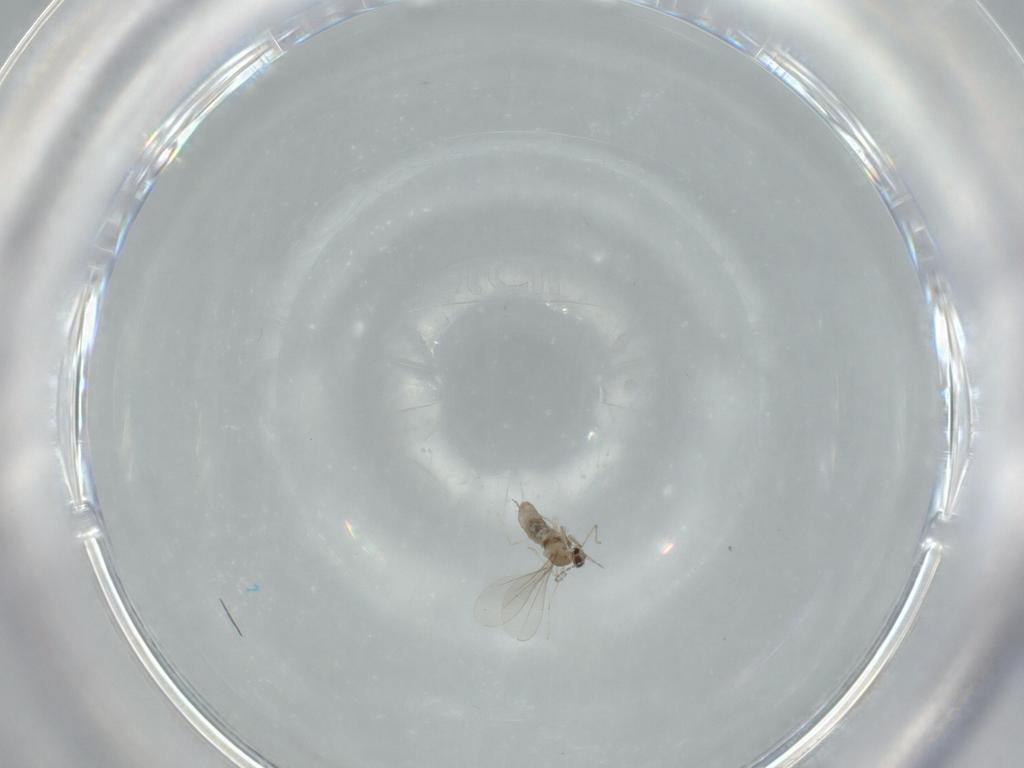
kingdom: Animalia
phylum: Arthropoda
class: Insecta
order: Diptera
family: Cecidomyiidae
